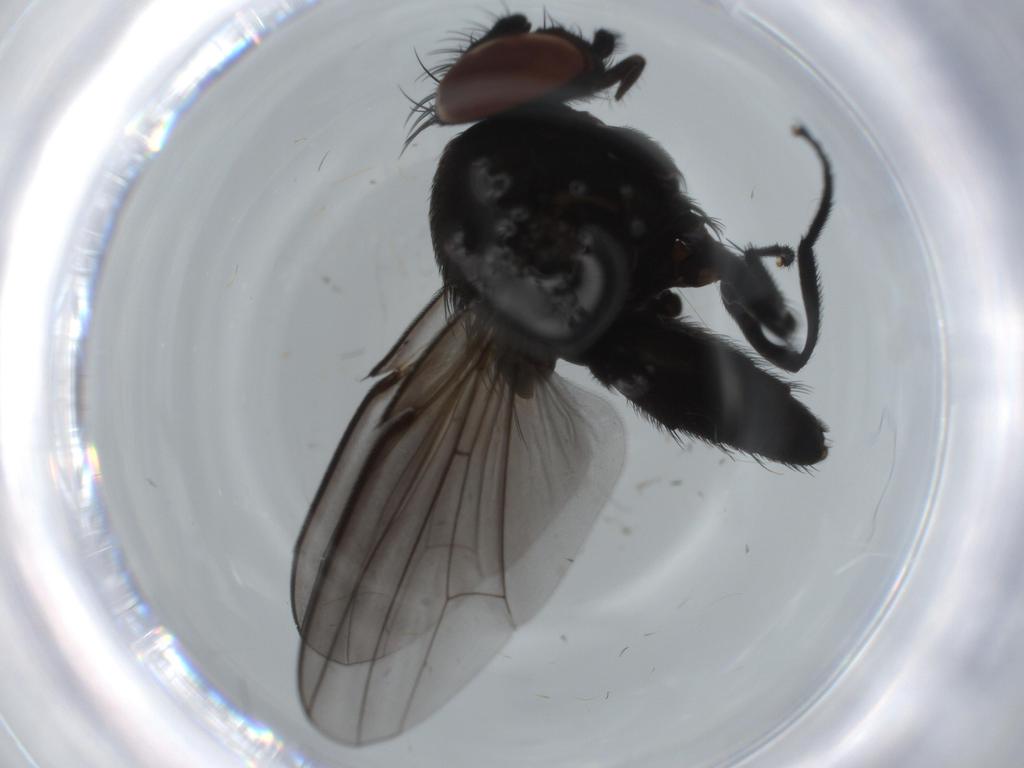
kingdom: Animalia
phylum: Arthropoda
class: Insecta
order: Diptera
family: Milichiidae
